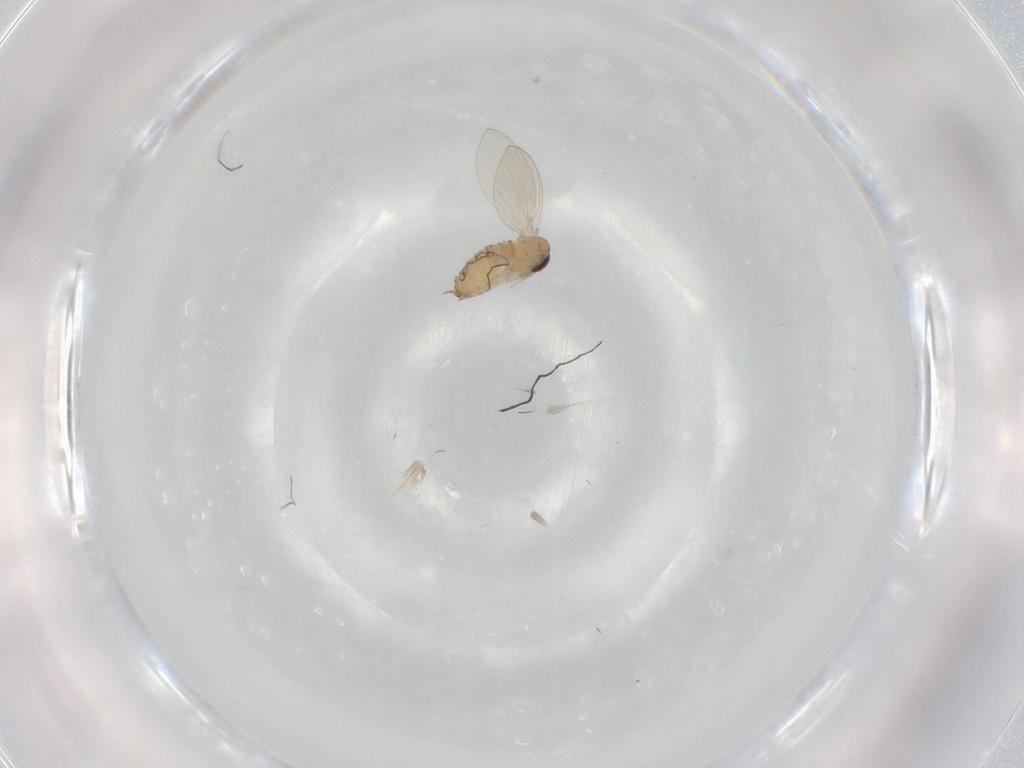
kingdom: Animalia
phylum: Arthropoda
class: Insecta
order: Diptera
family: Psychodidae
